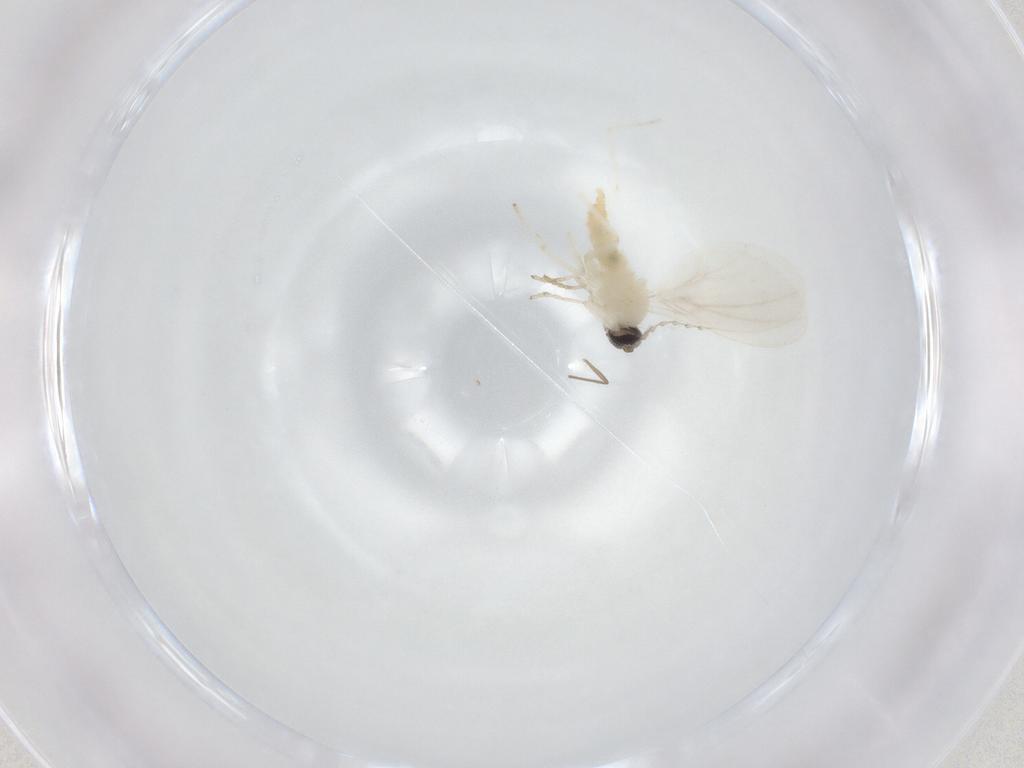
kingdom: Animalia
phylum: Arthropoda
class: Insecta
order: Diptera
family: Cecidomyiidae
